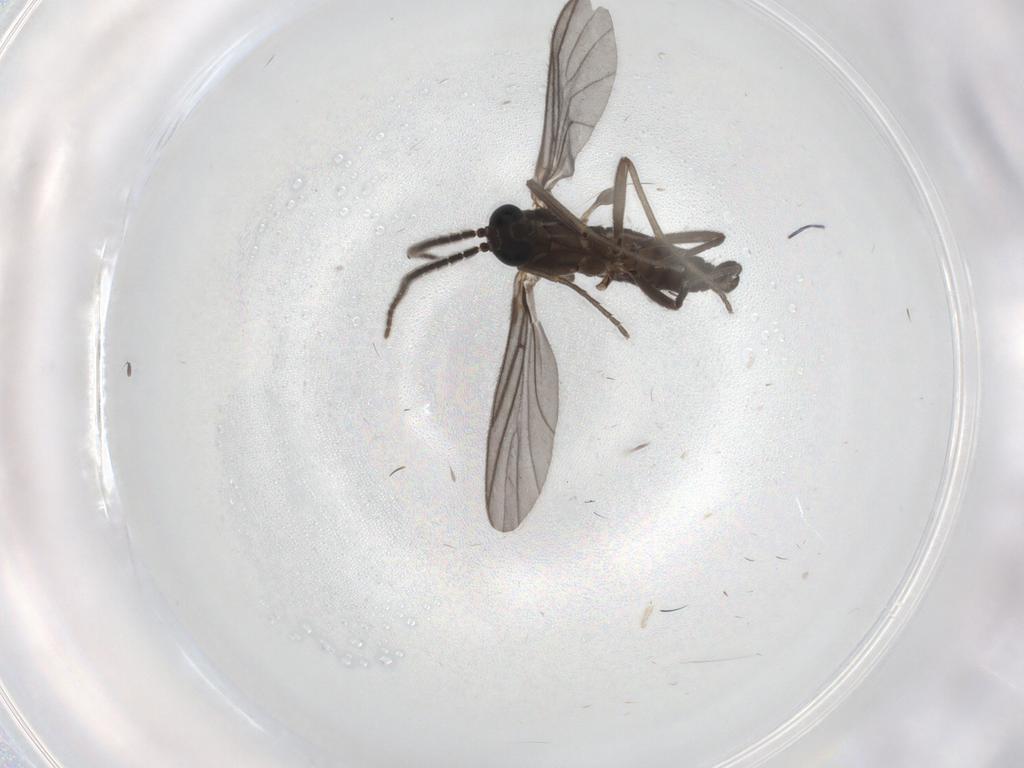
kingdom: Animalia
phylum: Arthropoda
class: Insecta
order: Diptera
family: Sciaridae
